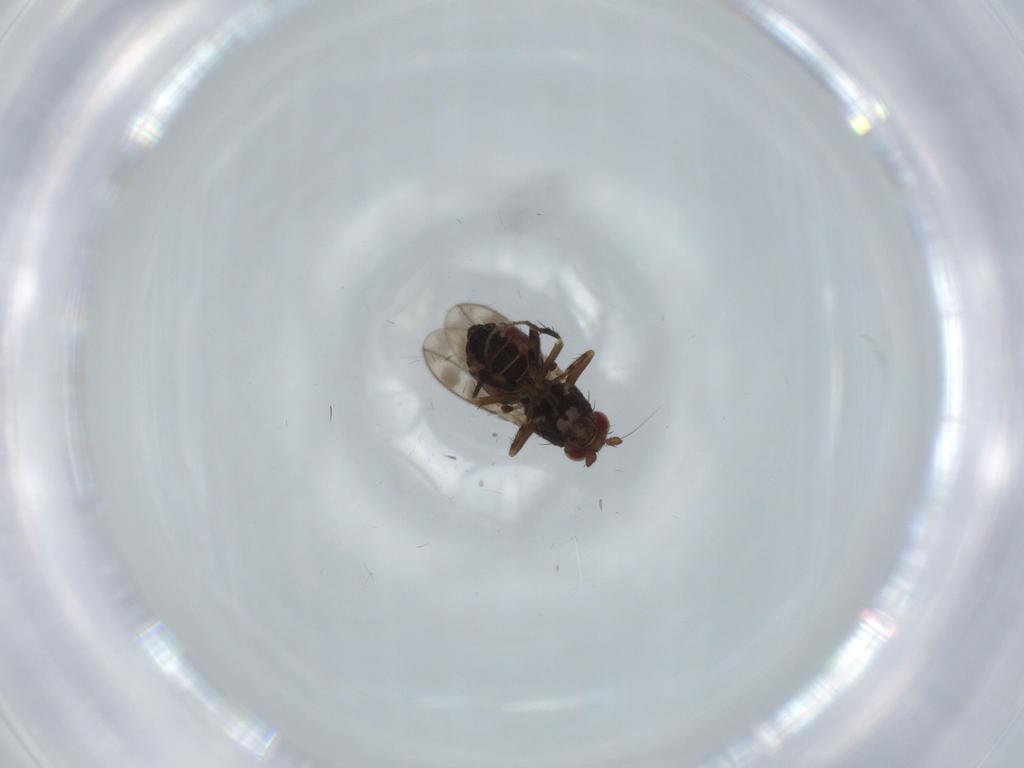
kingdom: Animalia
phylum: Arthropoda
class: Insecta
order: Diptera
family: Sphaeroceridae
